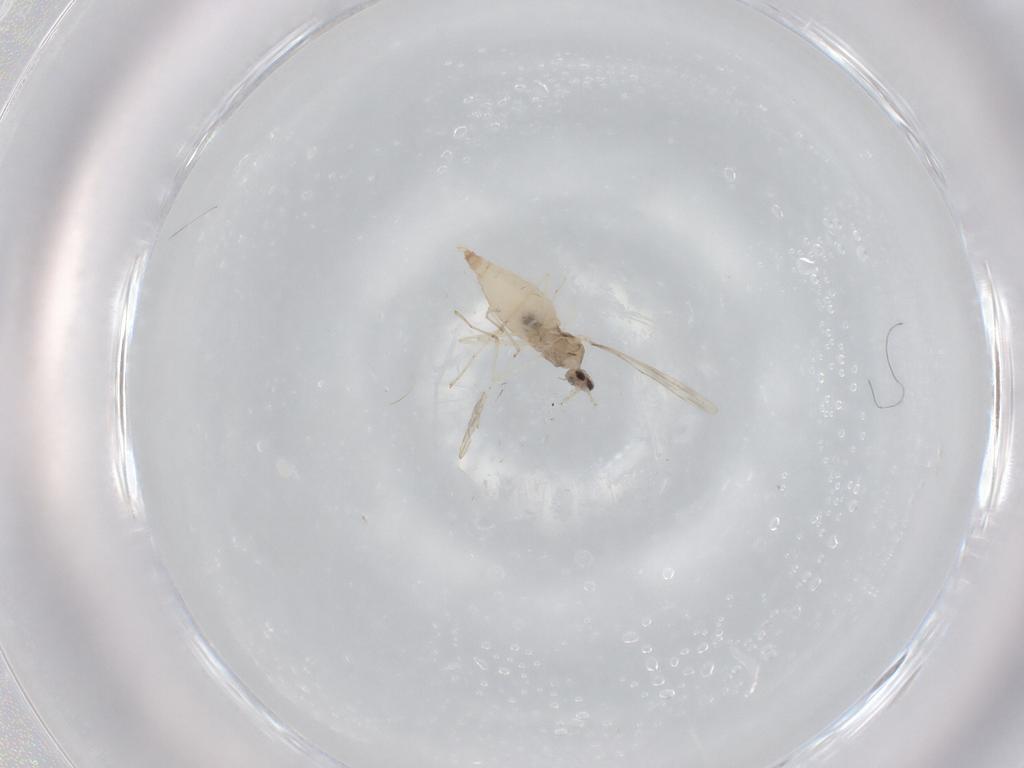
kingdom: Animalia
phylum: Arthropoda
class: Insecta
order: Diptera
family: Cecidomyiidae
